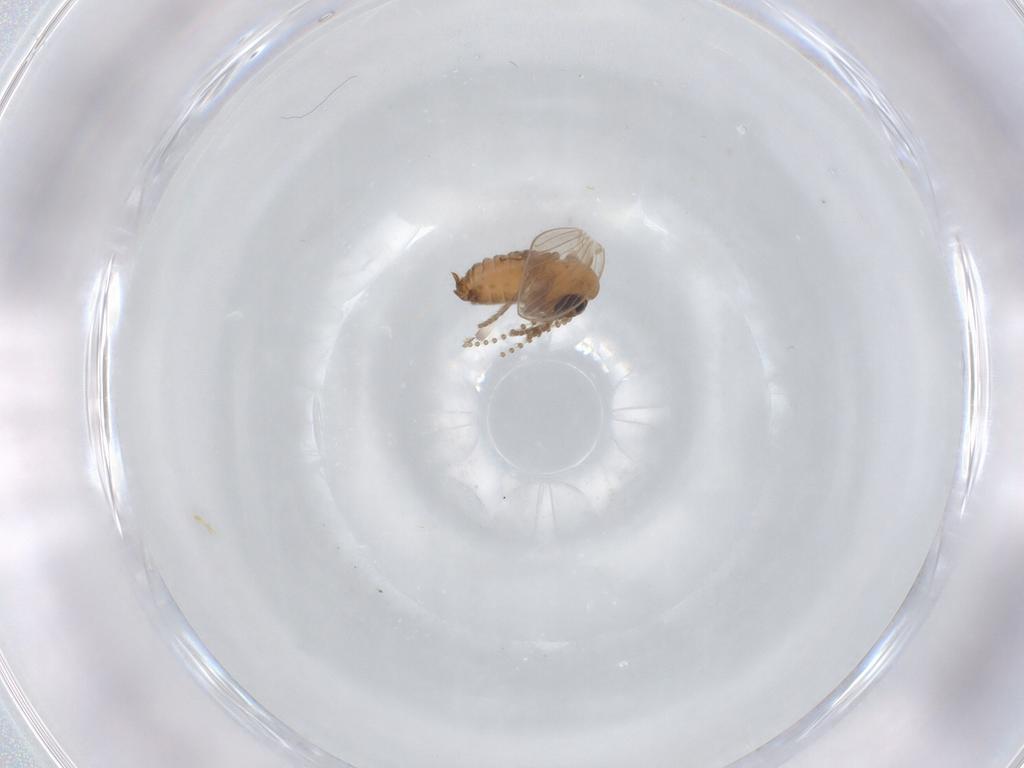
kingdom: Animalia
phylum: Arthropoda
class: Insecta
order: Diptera
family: Psychodidae
